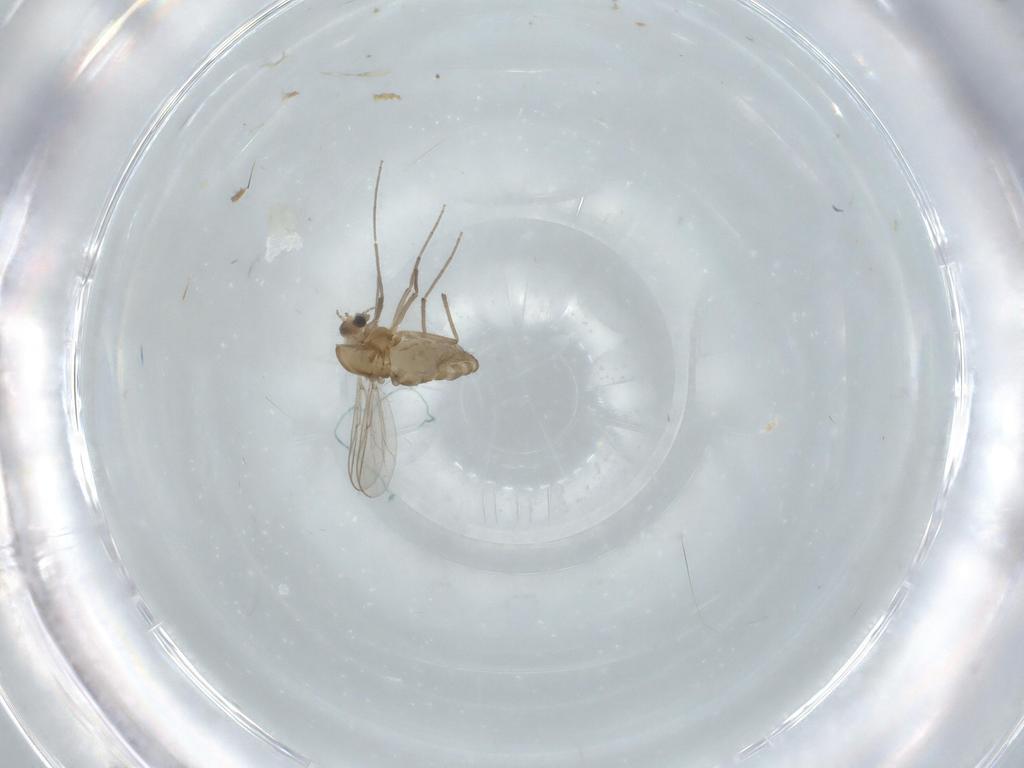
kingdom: Animalia
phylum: Arthropoda
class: Insecta
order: Diptera
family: Chironomidae
